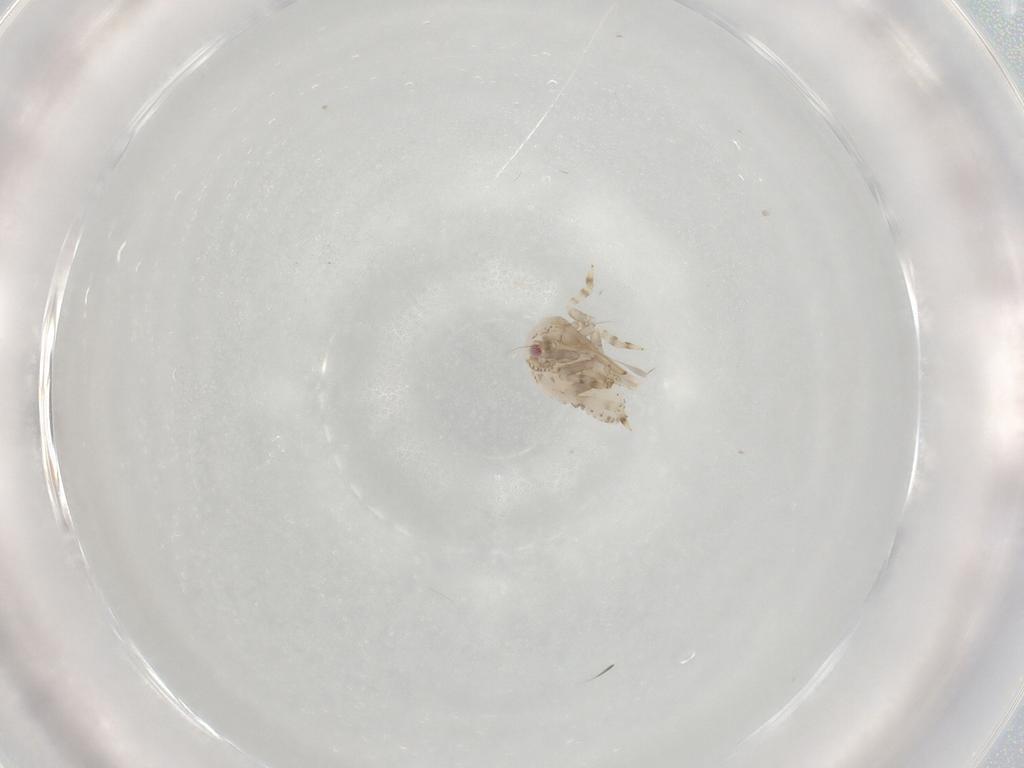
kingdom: Animalia
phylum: Arthropoda
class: Insecta
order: Hemiptera
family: Acanaloniidae
